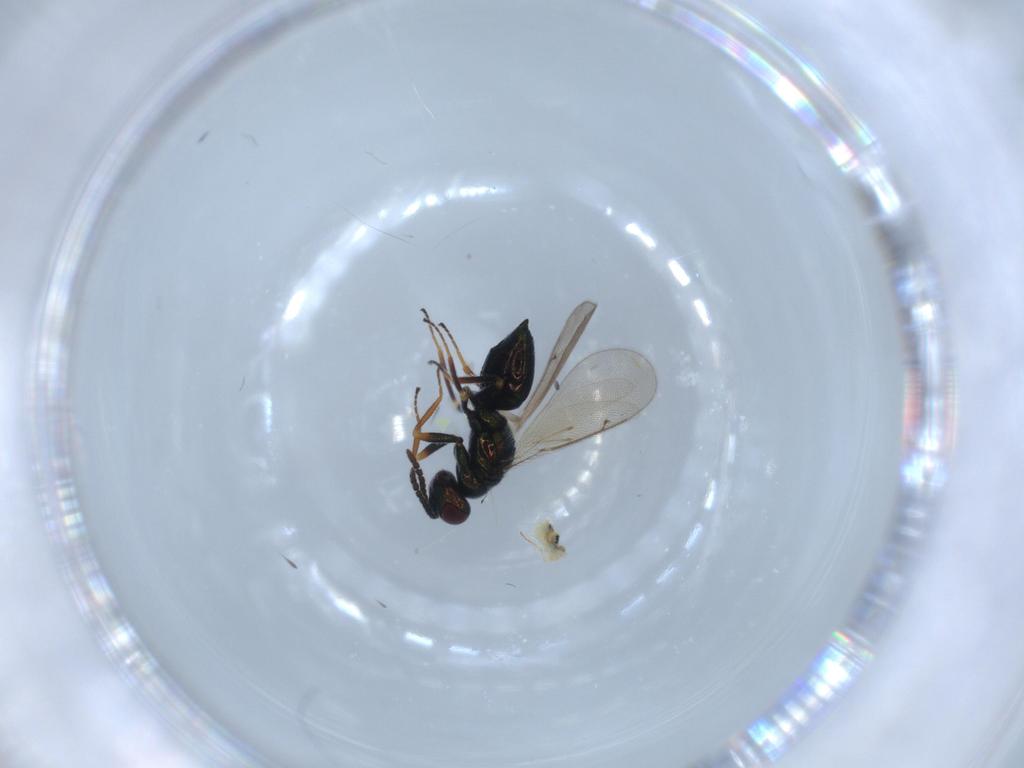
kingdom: Animalia
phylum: Arthropoda
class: Collembola
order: Symphypleona
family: Bourletiellidae
